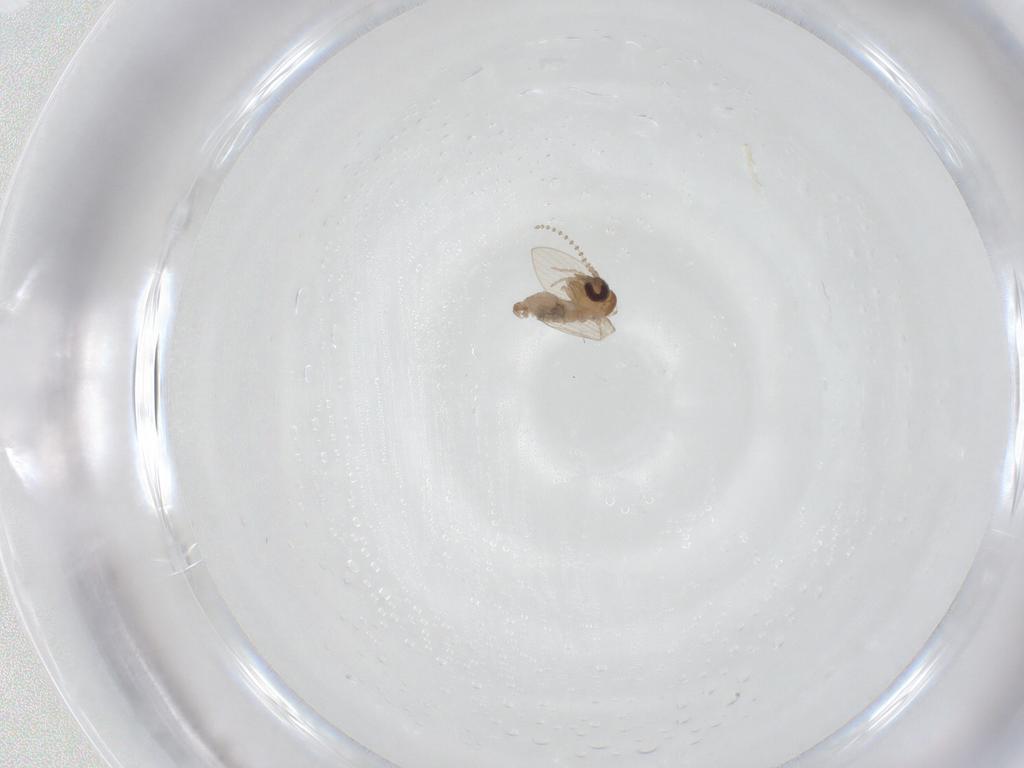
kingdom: Animalia
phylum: Arthropoda
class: Insecta
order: Diptera
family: Psychodidae
